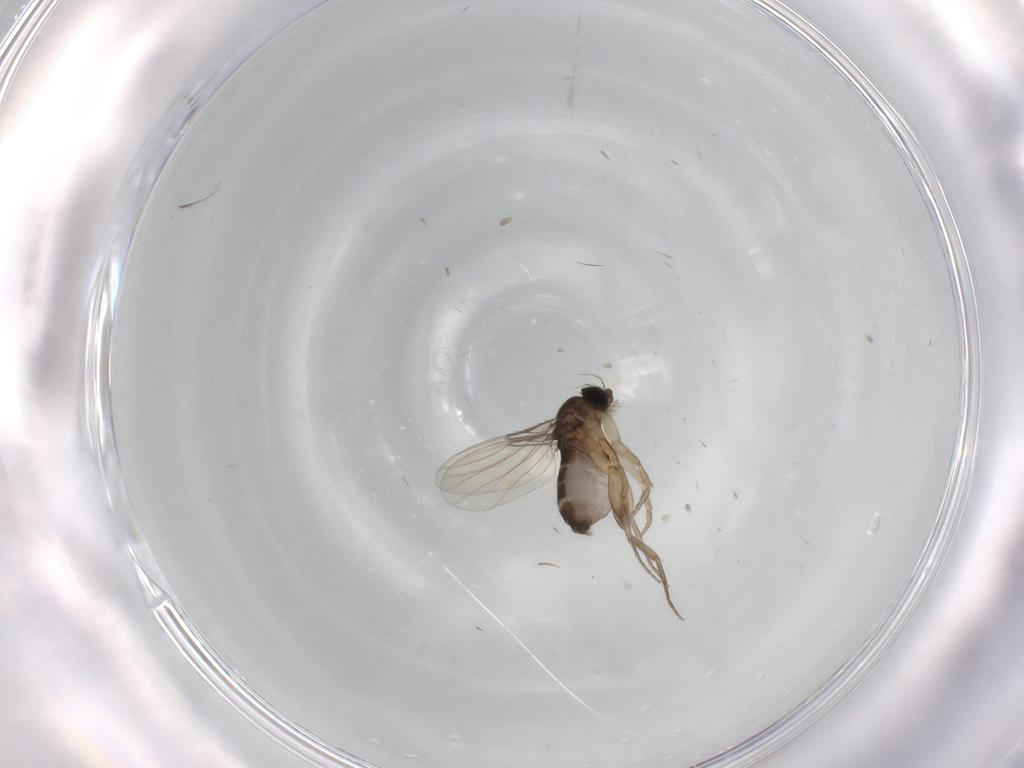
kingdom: Animalia
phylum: Arthropoda
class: Insecta
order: Diptera
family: Phoridae
